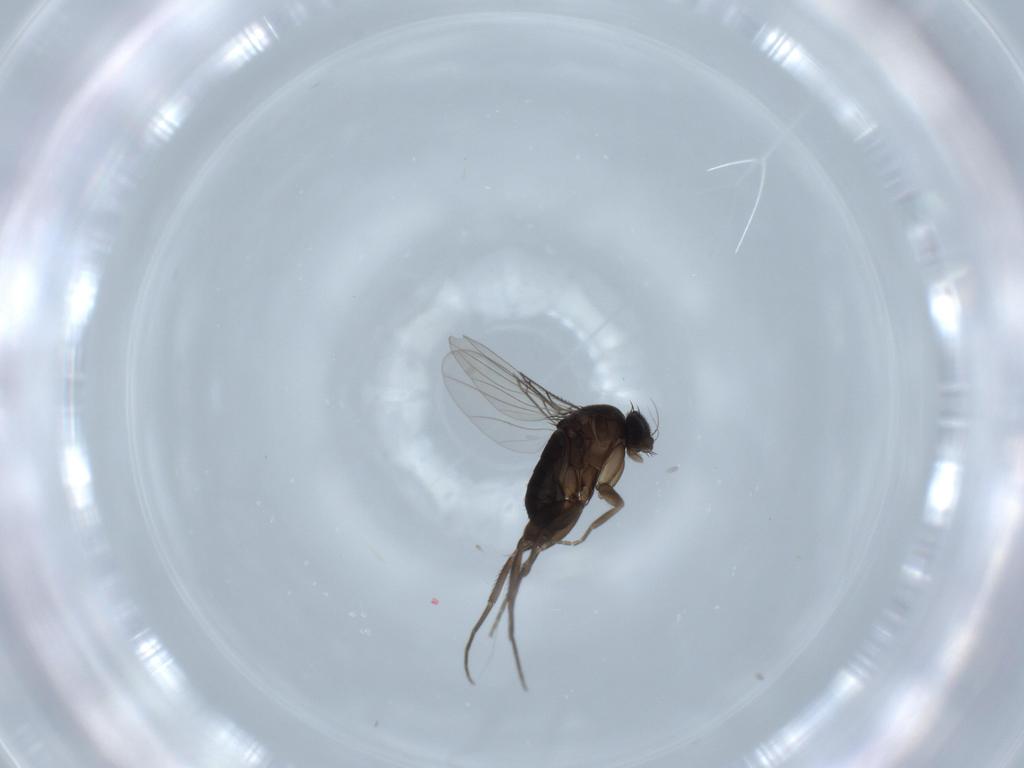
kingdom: Animalia
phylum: Arthropoda
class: Insecta
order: Diptera
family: Phoridae
